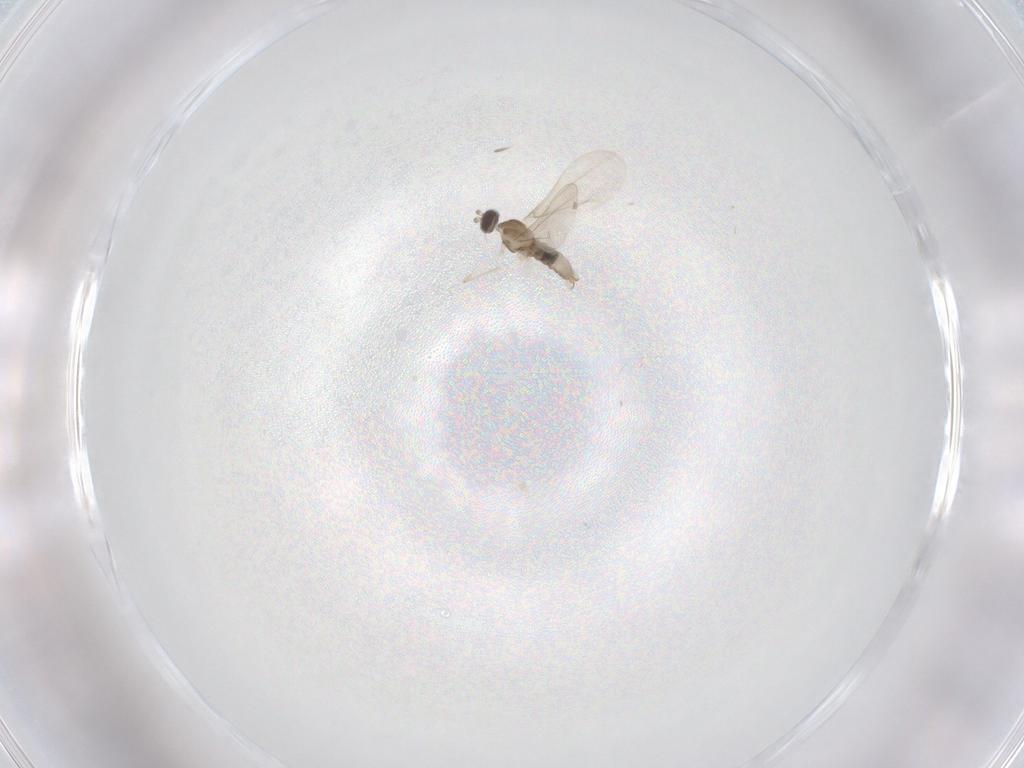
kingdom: Animalia
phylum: Arthropoda
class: Insecta
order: Diptera
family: Cecidomyiidae
